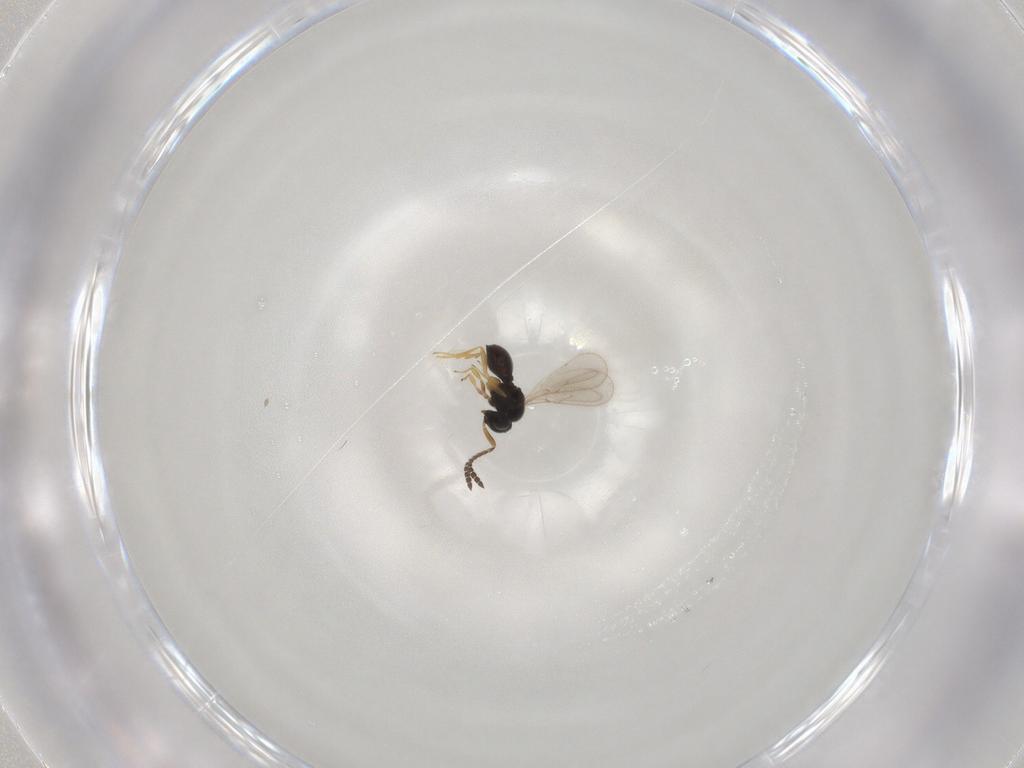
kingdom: Animalia
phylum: Arthropoda
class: Insecta
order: Hymenoptera
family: Scelionidae
